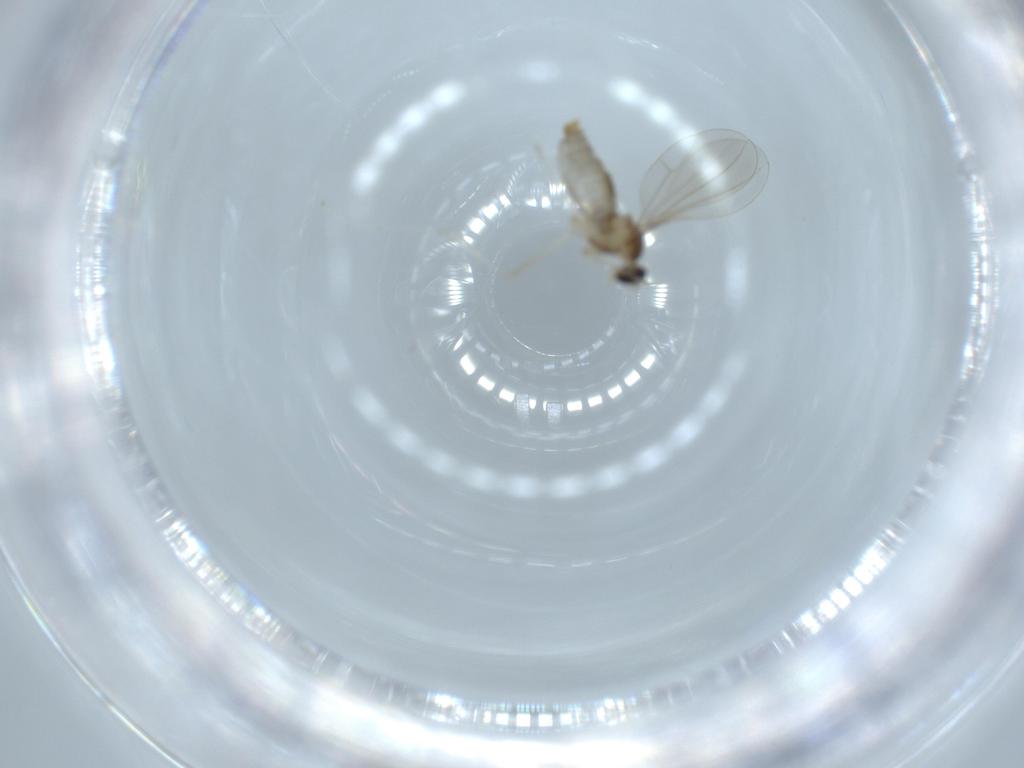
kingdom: Animalia
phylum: Arthropoda
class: Insecta
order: Diptera
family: Cecidomyiidae
